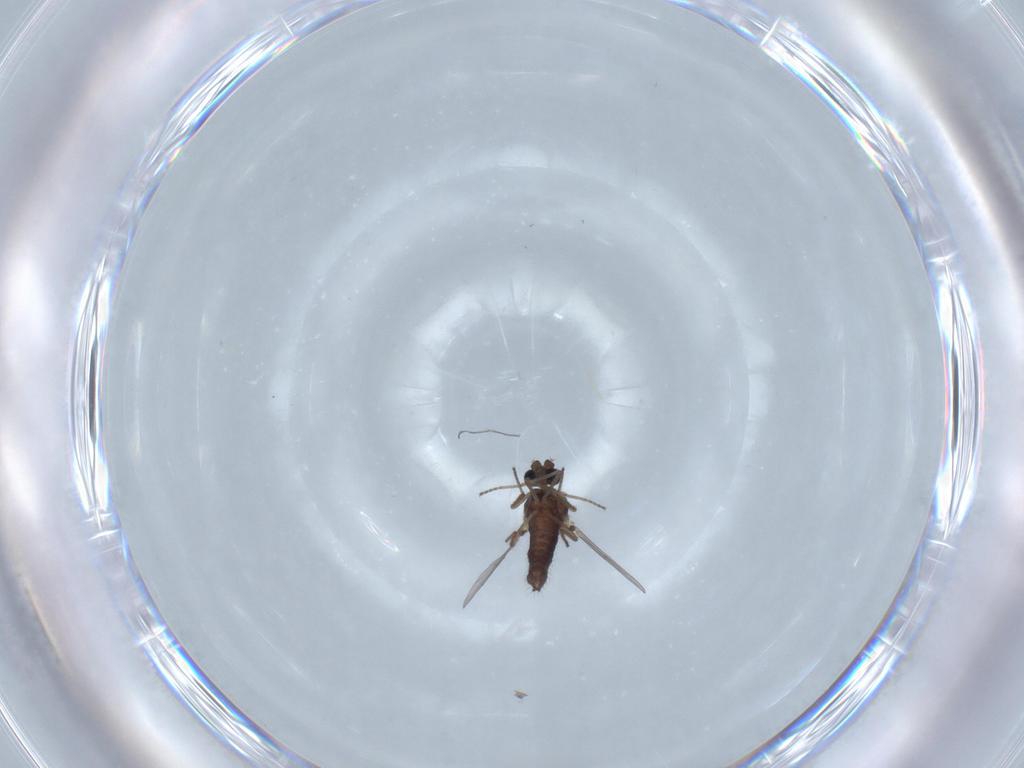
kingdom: Animalia
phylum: Arthropoda
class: Insecta
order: Diptera
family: Ceratopogonidae
